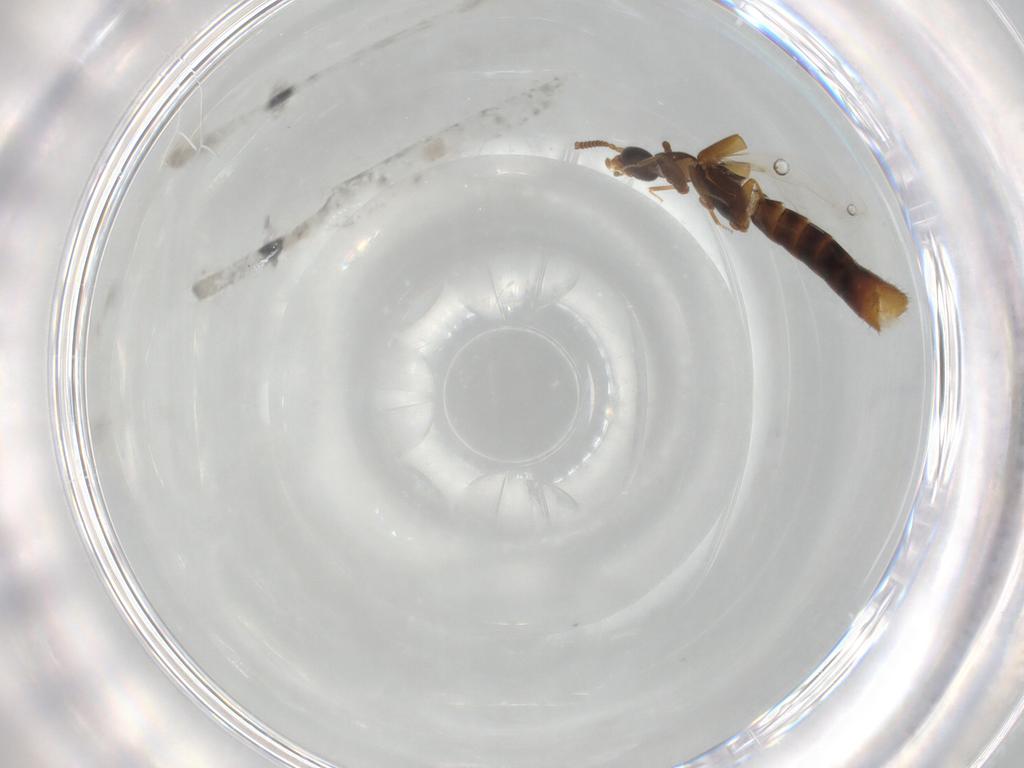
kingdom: Animalia
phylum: Arthropoda
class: Insecta
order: Coleoptera
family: Staphylinidae
